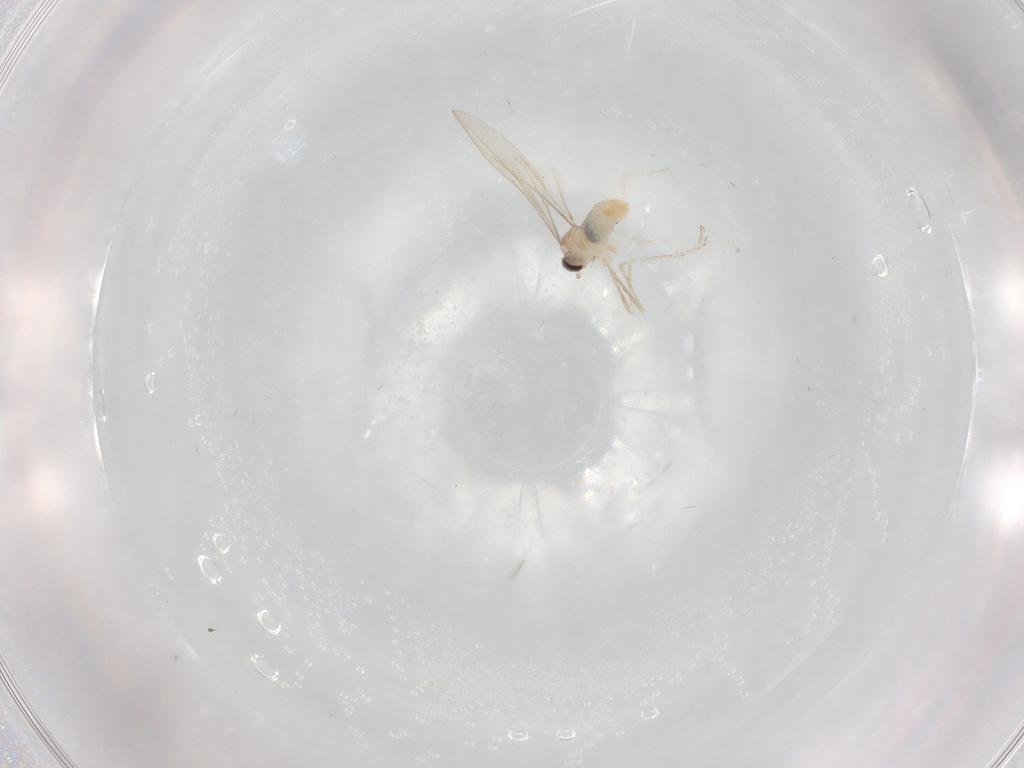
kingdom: Animalia
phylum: Arthropoda
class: Insecta
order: Diptera
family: Cecidomyiidae
